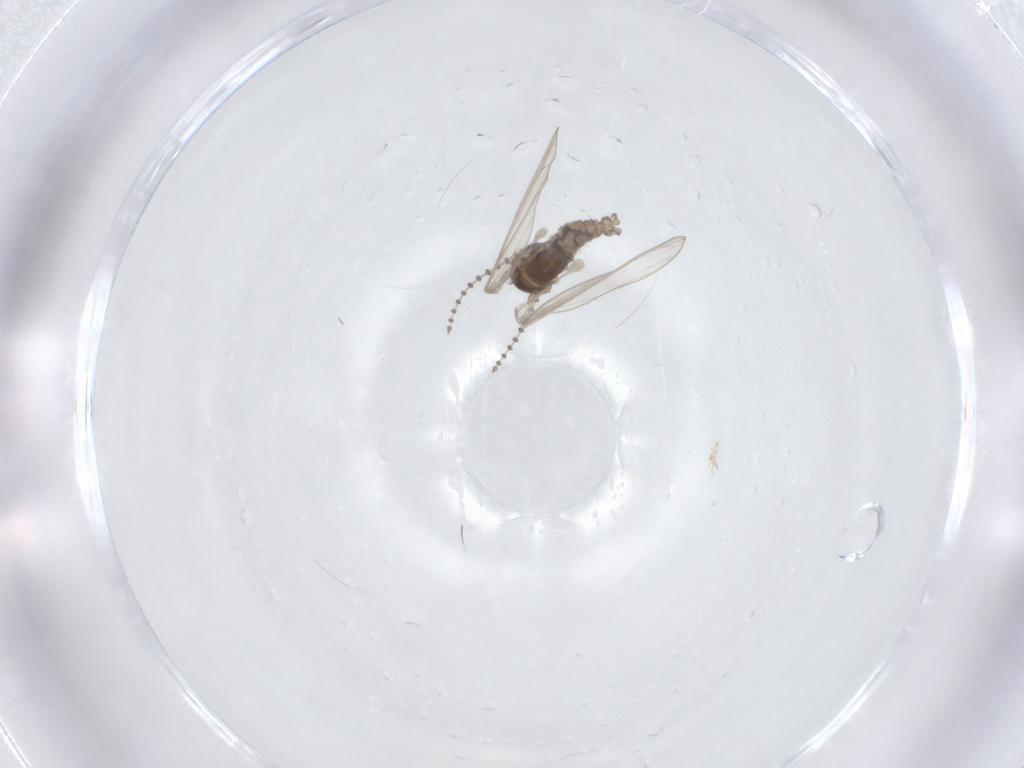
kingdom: Animalia
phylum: Arthropoda
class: Insecta
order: Diptera
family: Psychodidae
